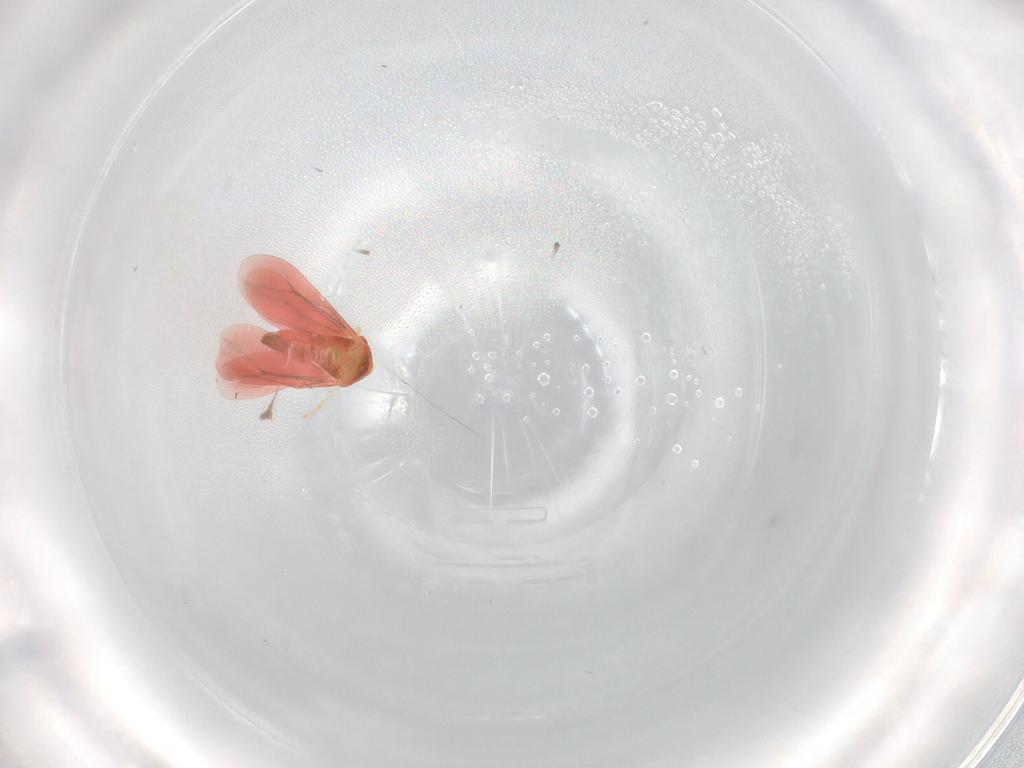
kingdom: Animalia
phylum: Arthropoda
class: Insecta
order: Hemiptera
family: Aleyrodidae
